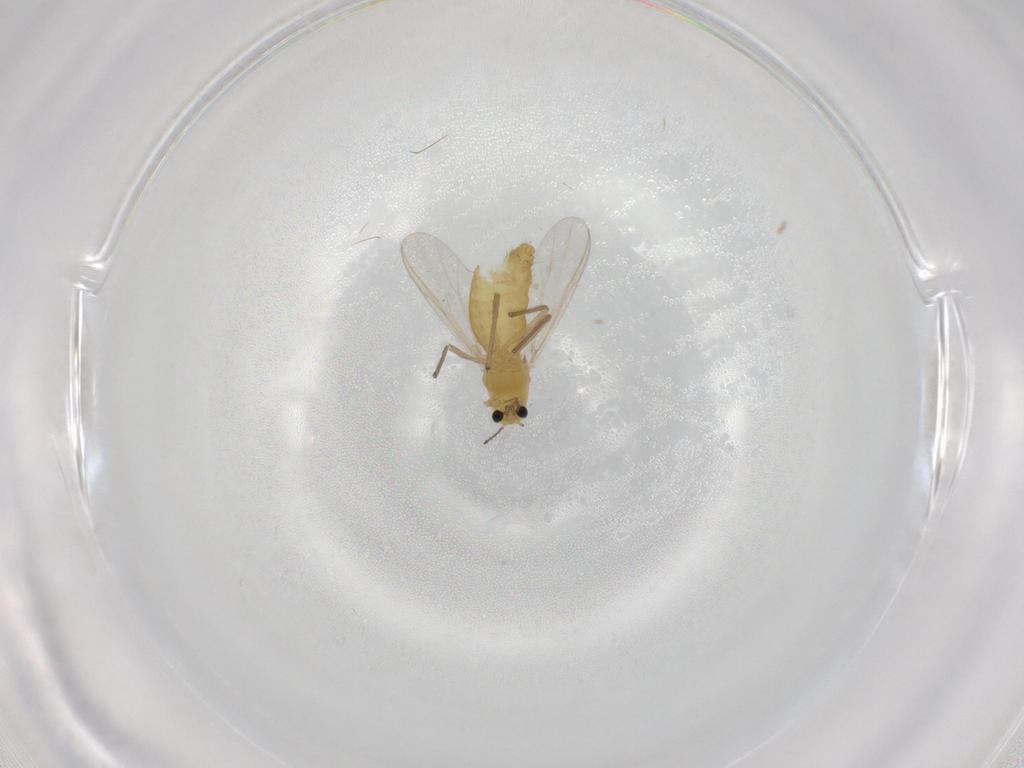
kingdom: Animalia
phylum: Arthropoda
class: Insecta
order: Diptera
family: Chironomidae
